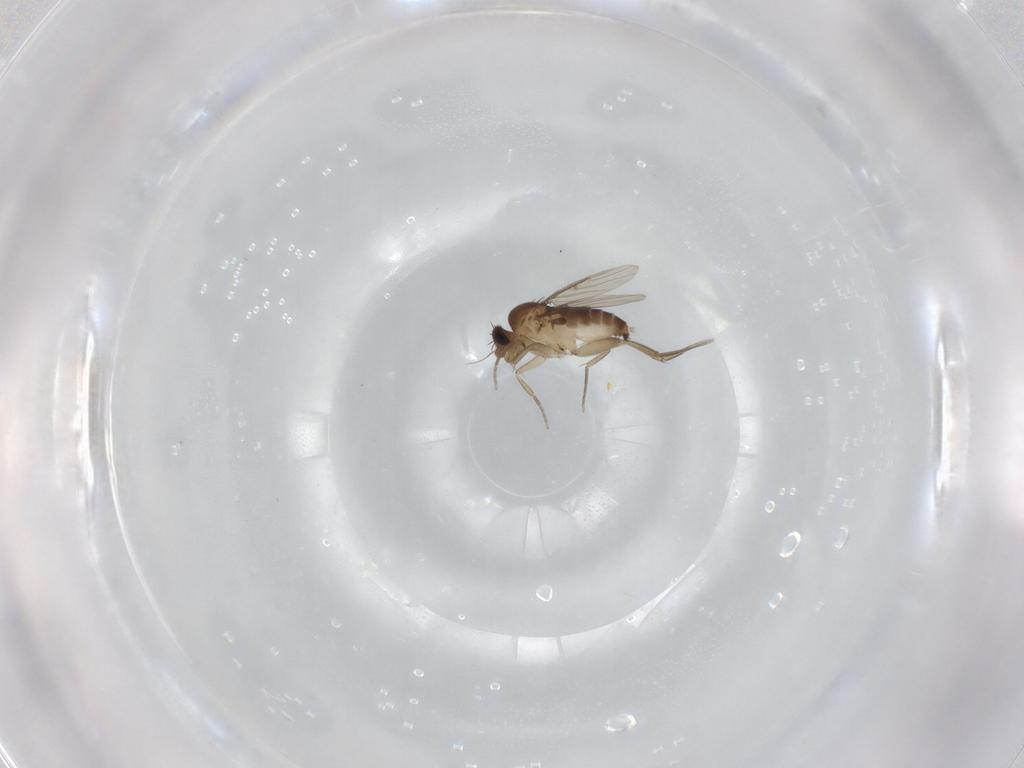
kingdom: Animalia
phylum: Arthropoda
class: Insecta
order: Diptera
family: Phoridae
